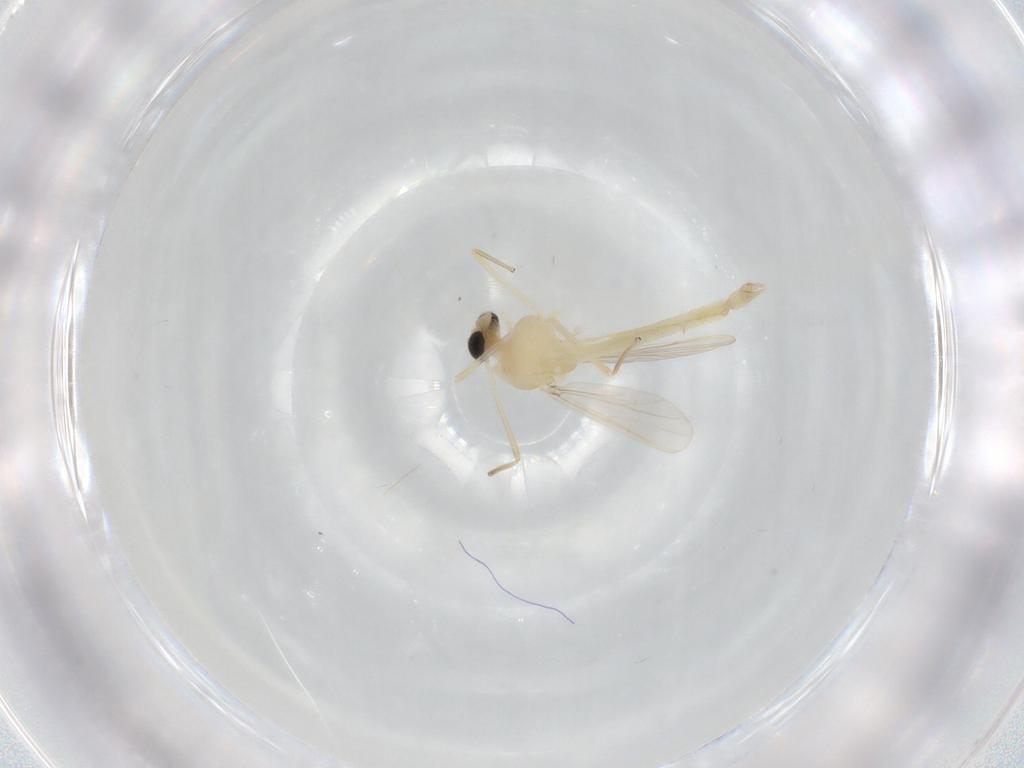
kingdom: Animalia
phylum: Arthropoda
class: Insecta
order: Diptera
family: Chironomidae
